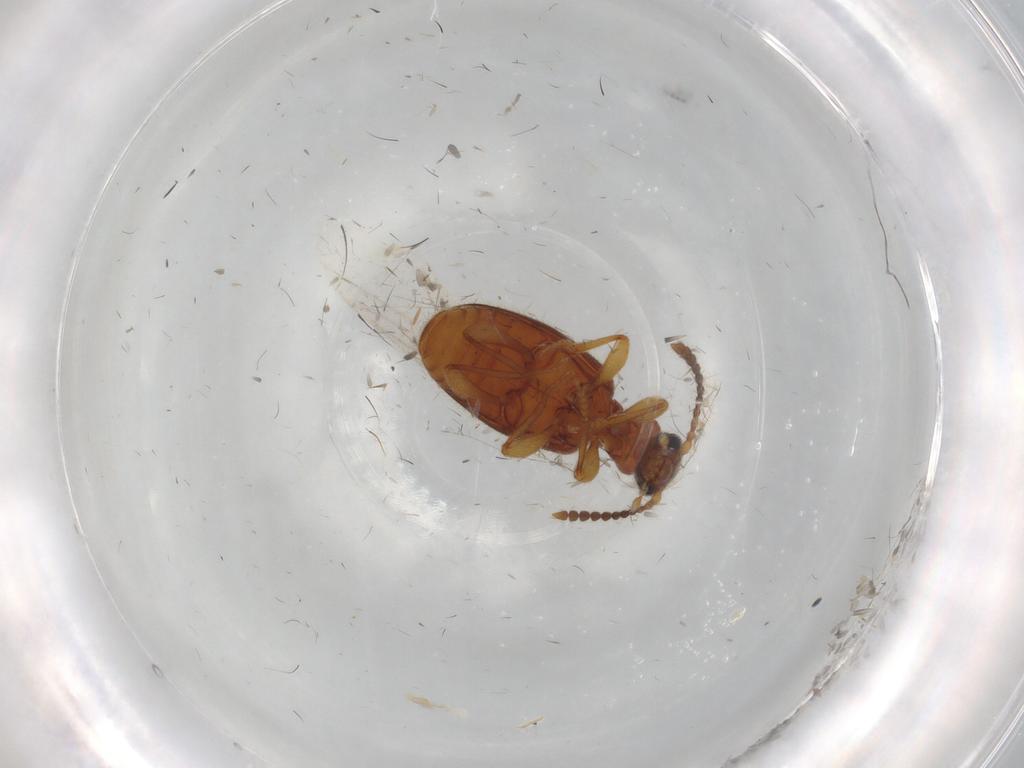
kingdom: Animalia
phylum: Arthropoda
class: Insecta
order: Coleoptera
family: Anthicidae
